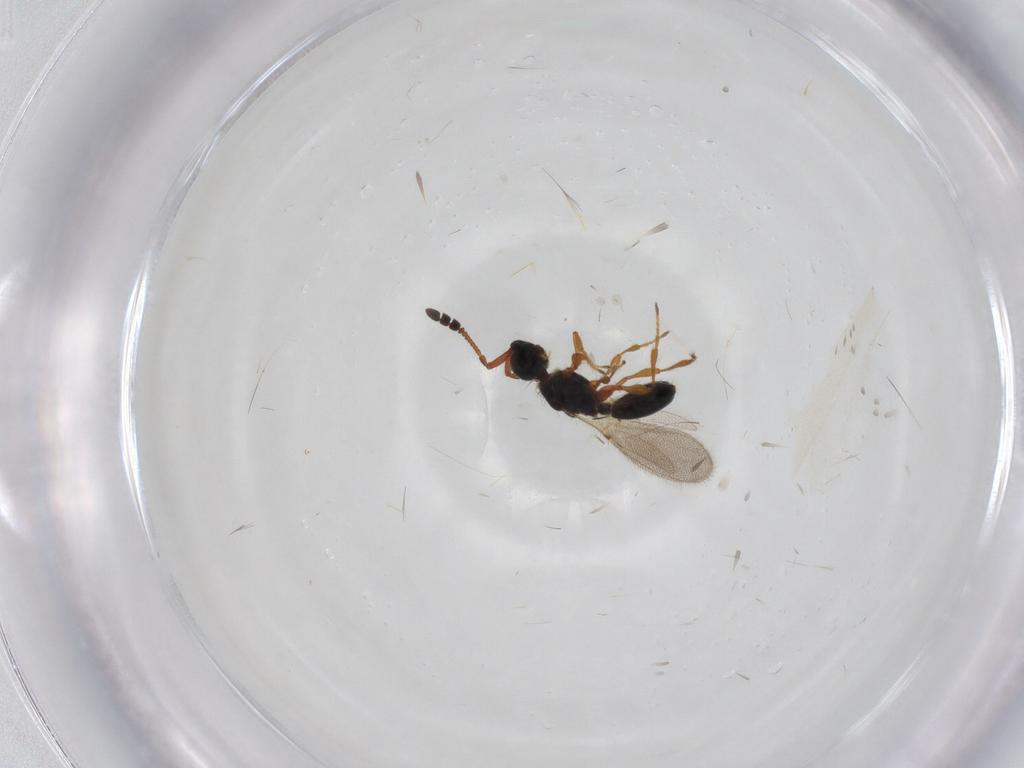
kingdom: Animalia
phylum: Arthropoda
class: Insecta
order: Hymenoptera
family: Diapriidae
